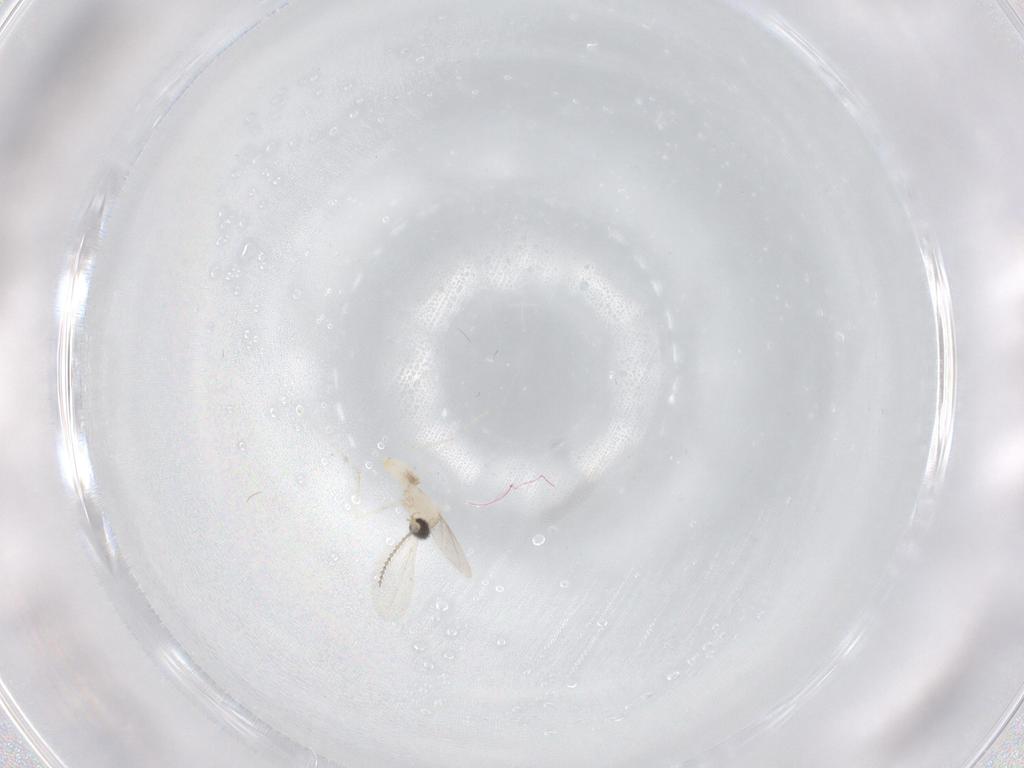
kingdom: Animalia
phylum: Arthropoda
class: Insecta
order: Diptera
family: Cecidomyiidae
